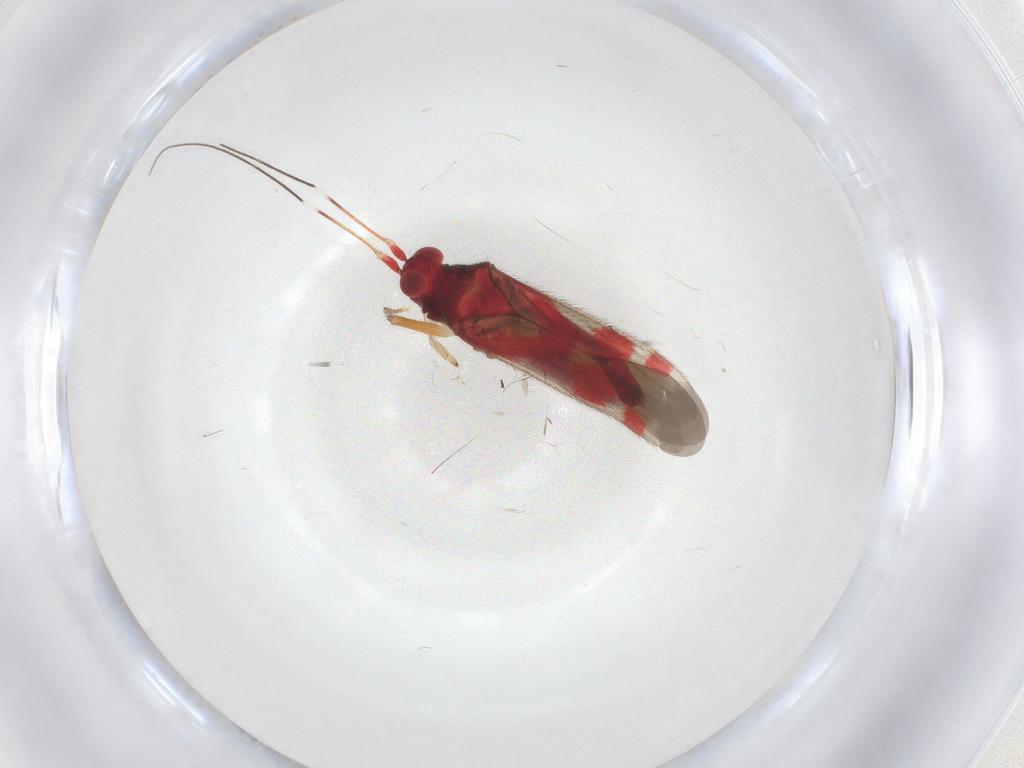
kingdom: Animalia
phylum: Arthropoda
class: Insecta
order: Hemiptera
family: Miridae
